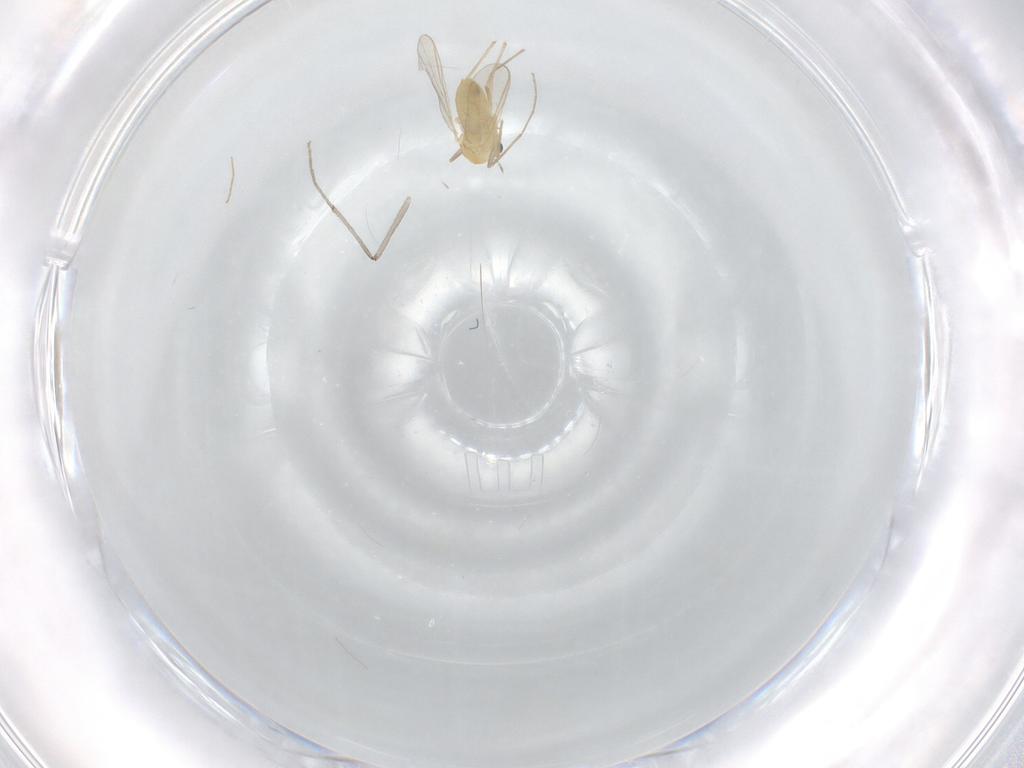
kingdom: Animalia
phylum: Arthropoda
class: Insecta
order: Diptera
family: Chironomidae
